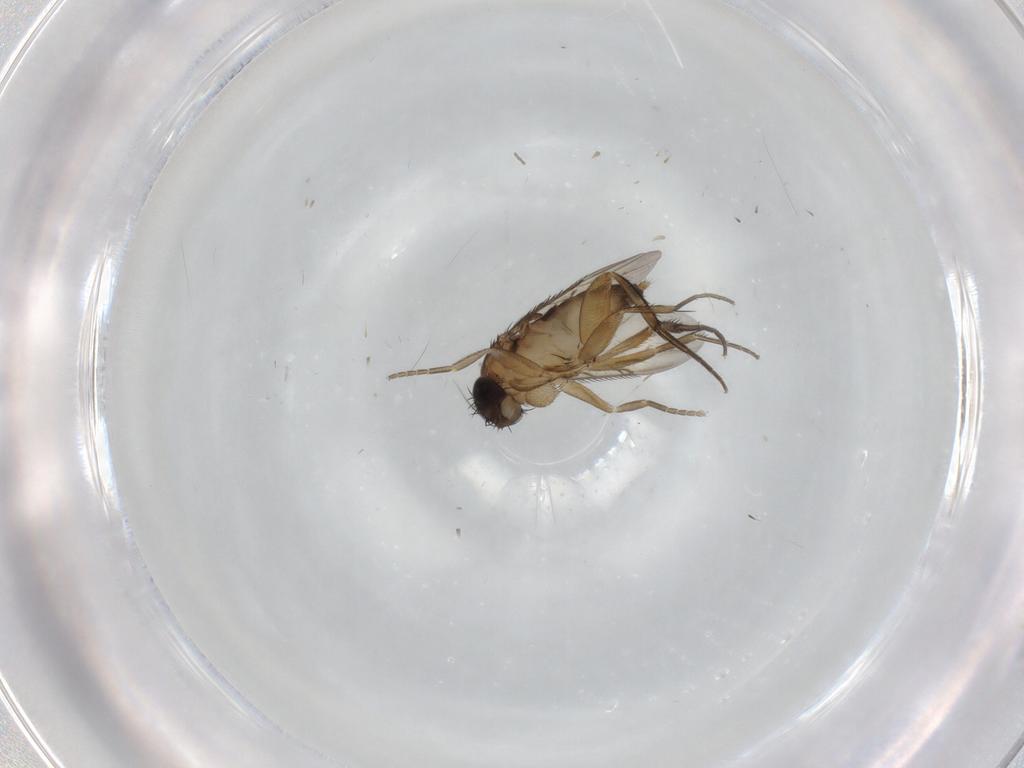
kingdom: Animalia
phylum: Arthropoda
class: Insecta
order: Diptera
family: Phoridae
